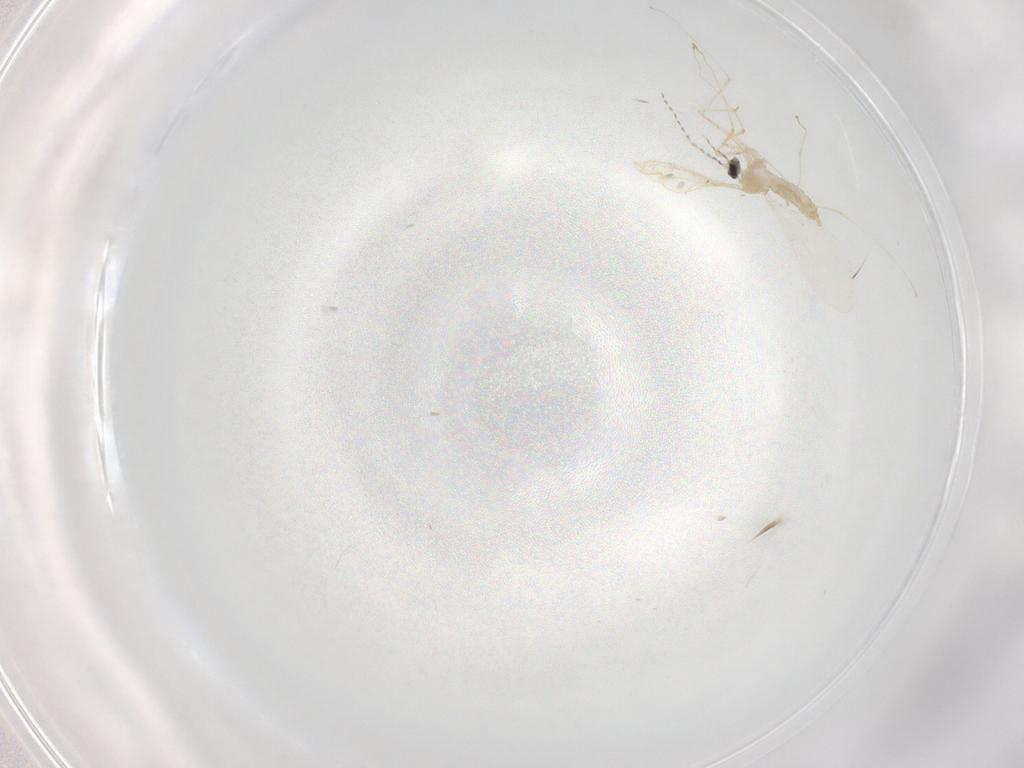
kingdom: Animalia
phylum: Arthropoda
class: Insecta
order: Diptera
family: Cecidomyiidae
